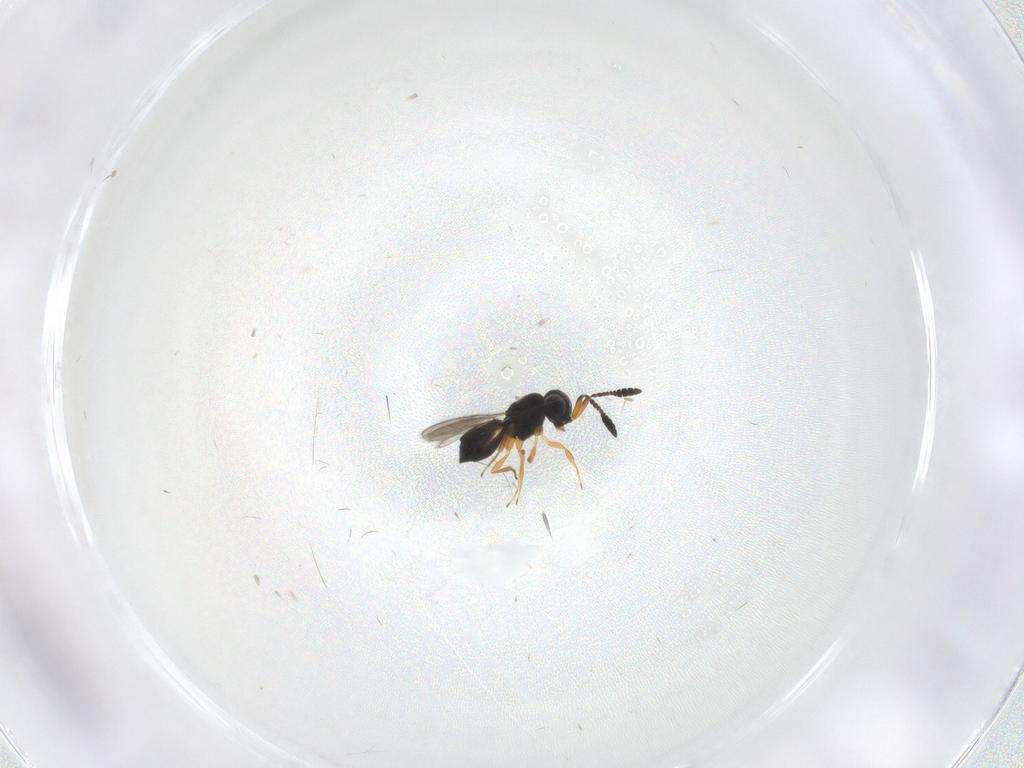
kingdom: Animalia
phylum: Arthropoda
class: Insecta
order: Hymenoptera
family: Scelionidae
